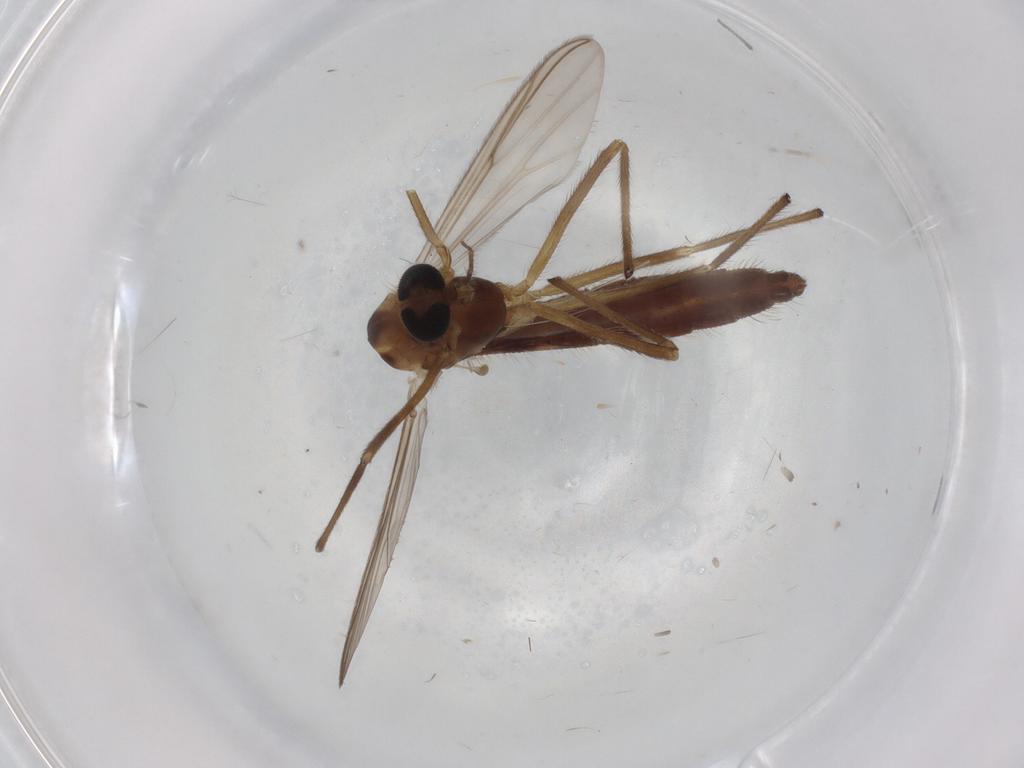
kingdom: Animalia
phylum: Arthropoda
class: Insecta
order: Diptera
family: Chironomidae
